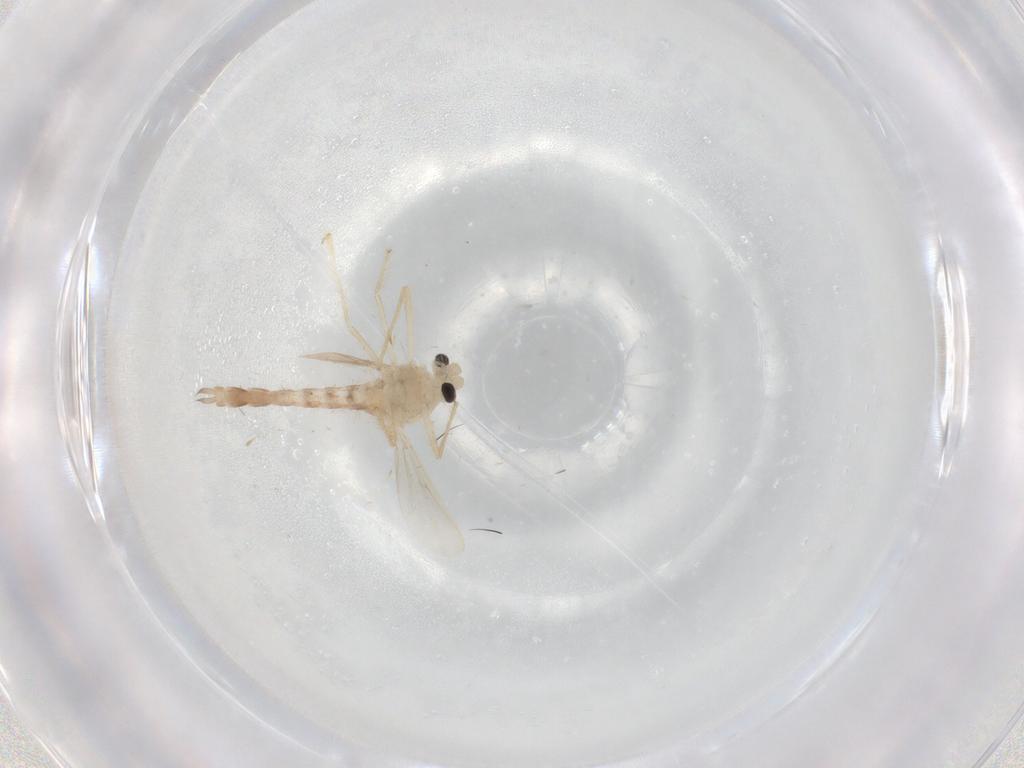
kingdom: Animalia
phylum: Arthropoda
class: Insecta
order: Diptera
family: Chironomidae
